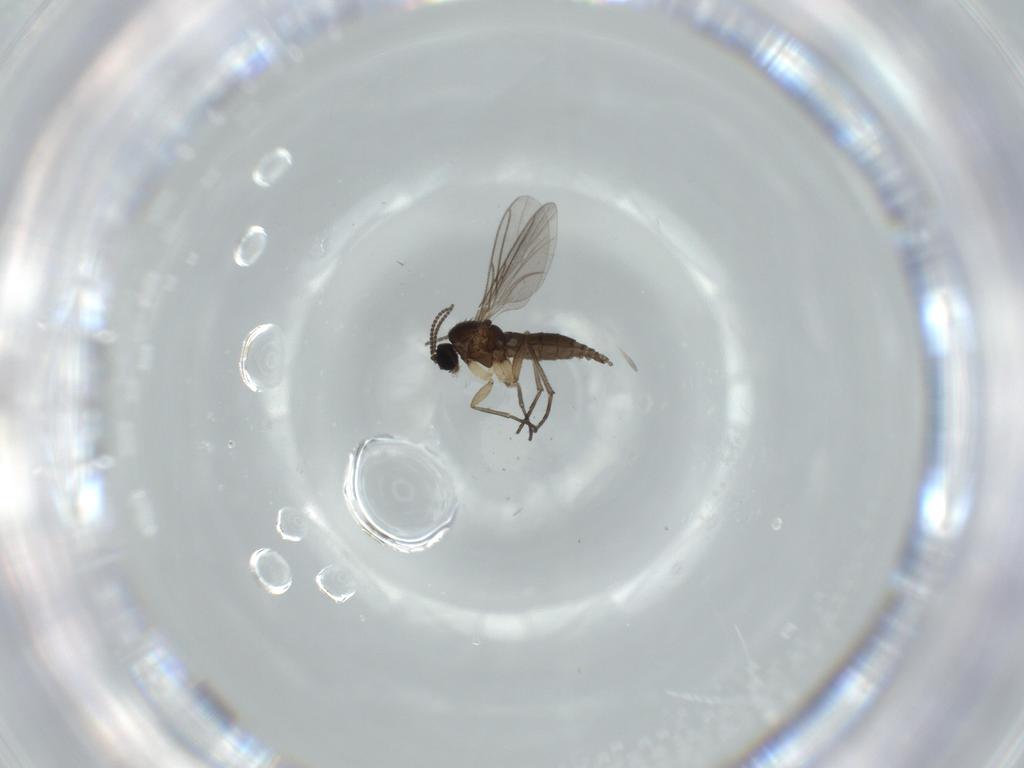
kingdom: Animalia
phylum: Arthropoda
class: Insecta
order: Diptera
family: Sciaridae
